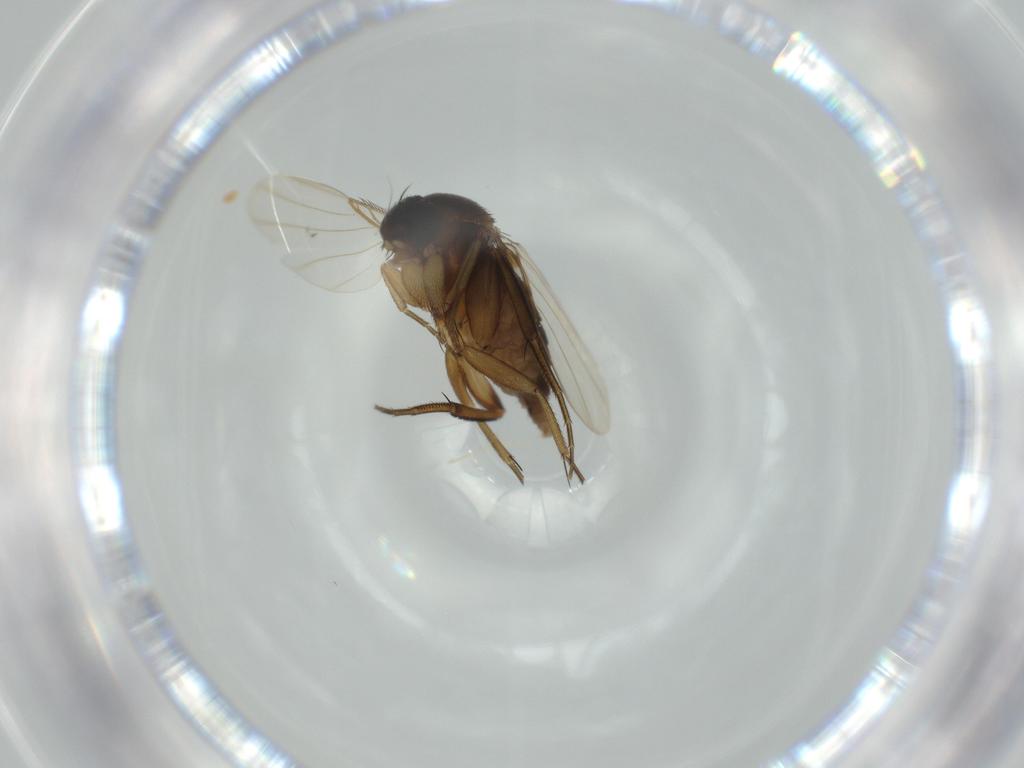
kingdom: Animalia
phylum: Arthropoda
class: Insecta
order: Diptera
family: Phoridae
